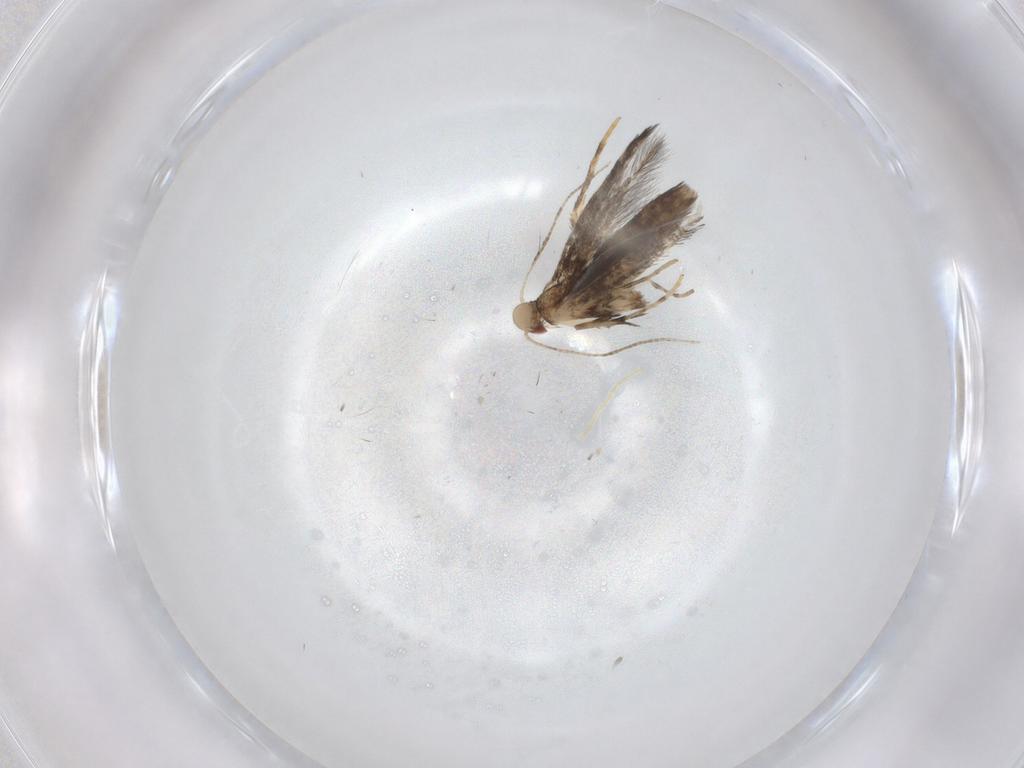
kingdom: Animalia
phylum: Arthropoda
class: Insecta
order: Lepidoptera
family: Gracillariidae
